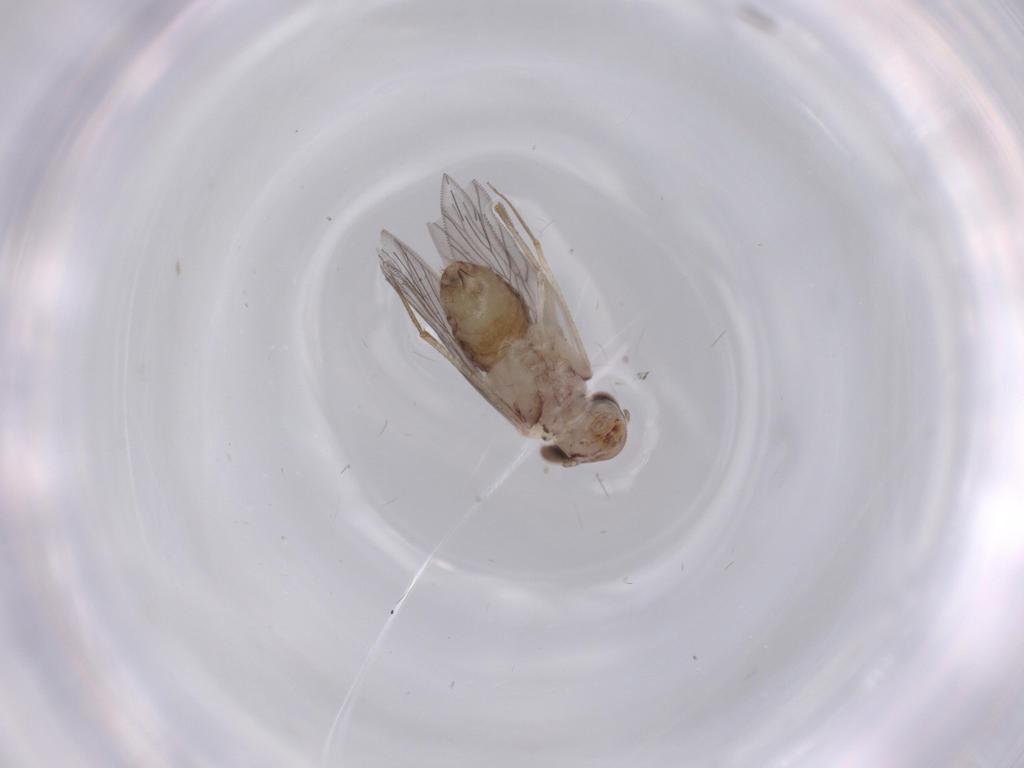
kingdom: Animalia
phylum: Arthropoda
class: Insecta
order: Psocodea
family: Lepidopsocidae
